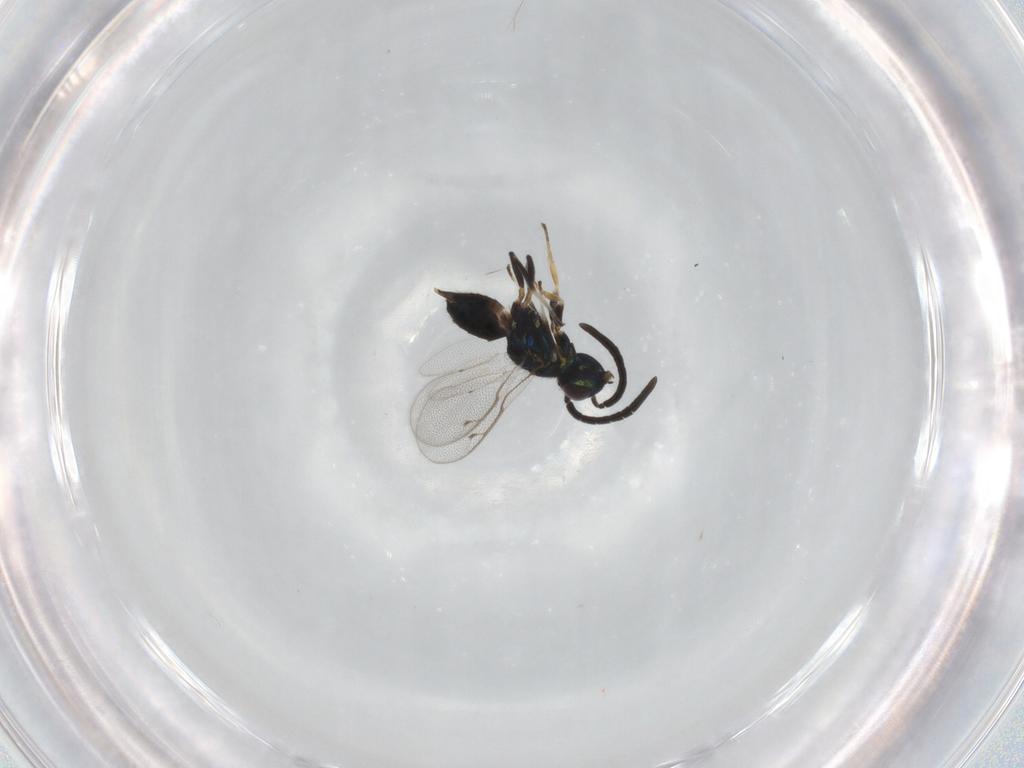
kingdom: Animalia
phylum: Arthropoda
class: Insecta
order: Hymenoptera
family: Eupelmidae
